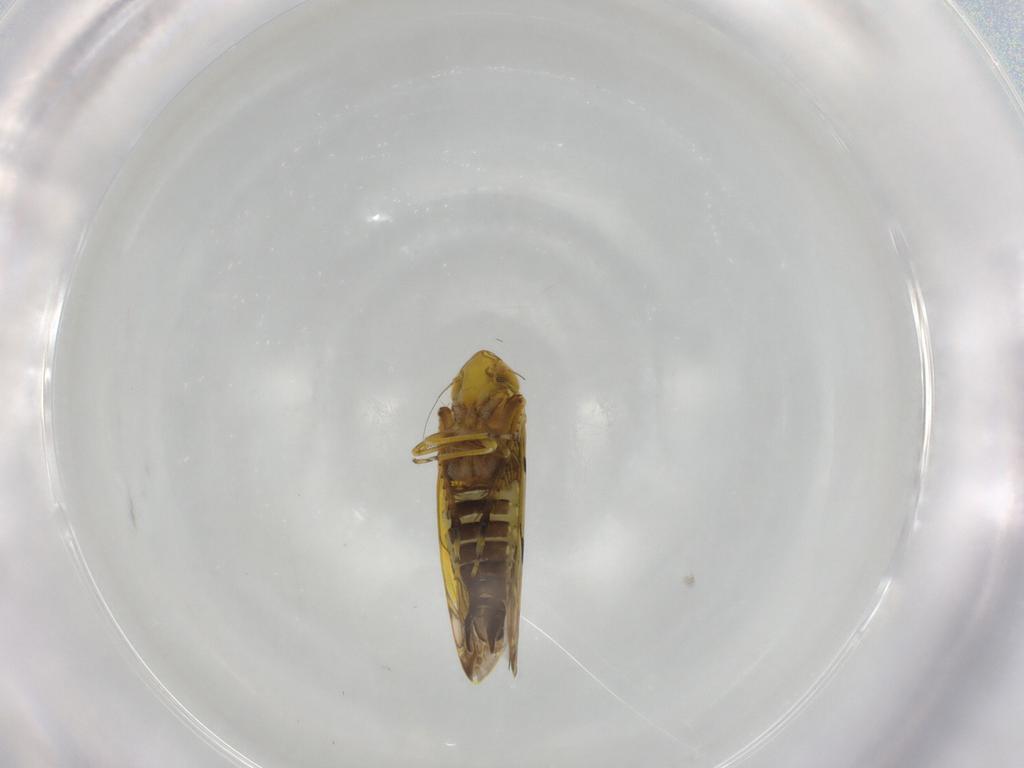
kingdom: Animalia
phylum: Arthropoda
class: Insecta
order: Hemiptera
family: Cicadellidae
